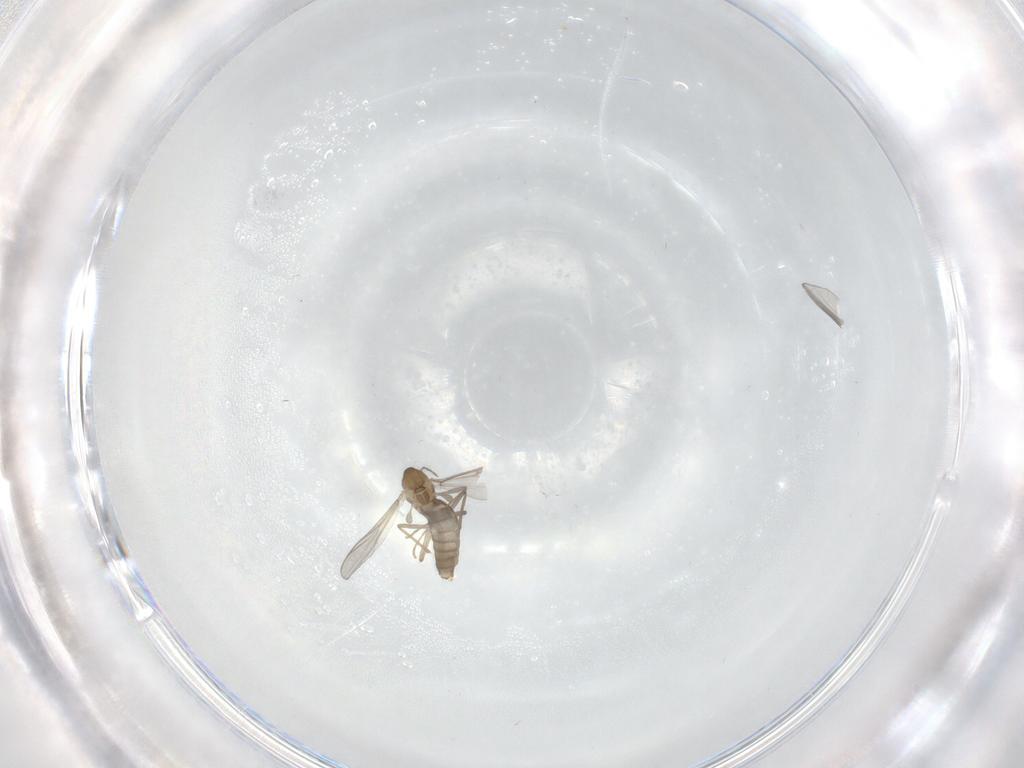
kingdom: Animalia
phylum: Arthropoda
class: Insecta
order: Diptera
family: Chironomidae
